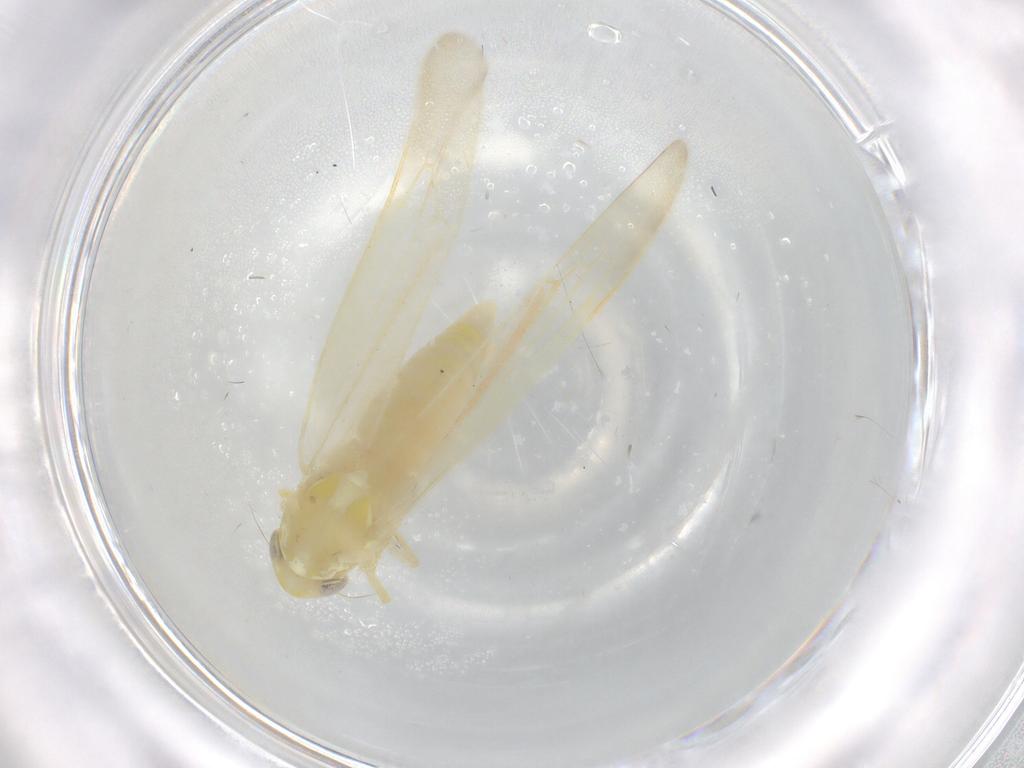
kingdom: Animalia
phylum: Arthropoda
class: Insecta
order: Hemiptera
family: Cicadellidae
